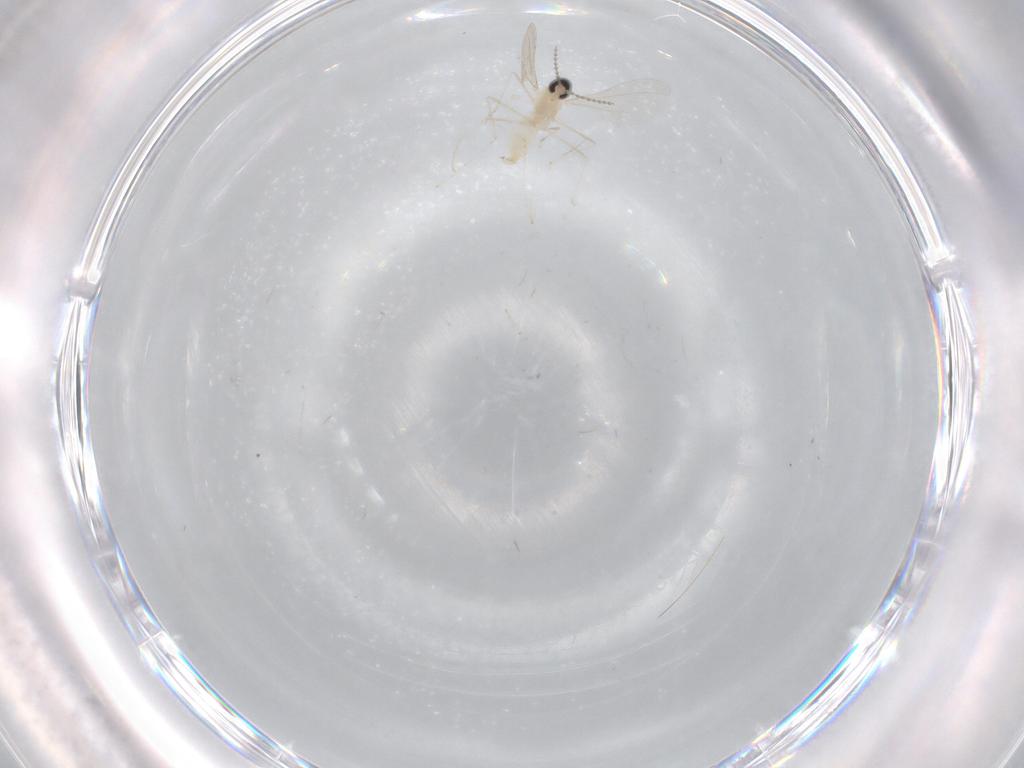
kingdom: Animalia
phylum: Arthropoda
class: Insecta
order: Diptera
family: Cecidomyiidae
